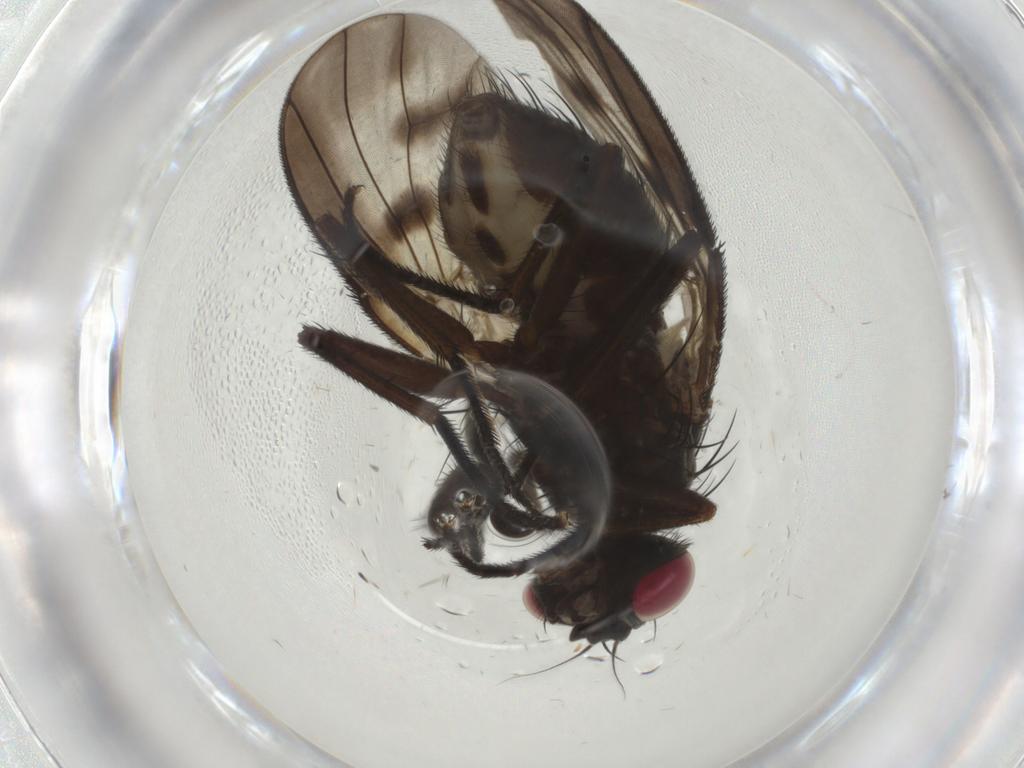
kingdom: Animalia
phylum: Arthropoda
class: Insecta
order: Diptera
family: Muscidae
